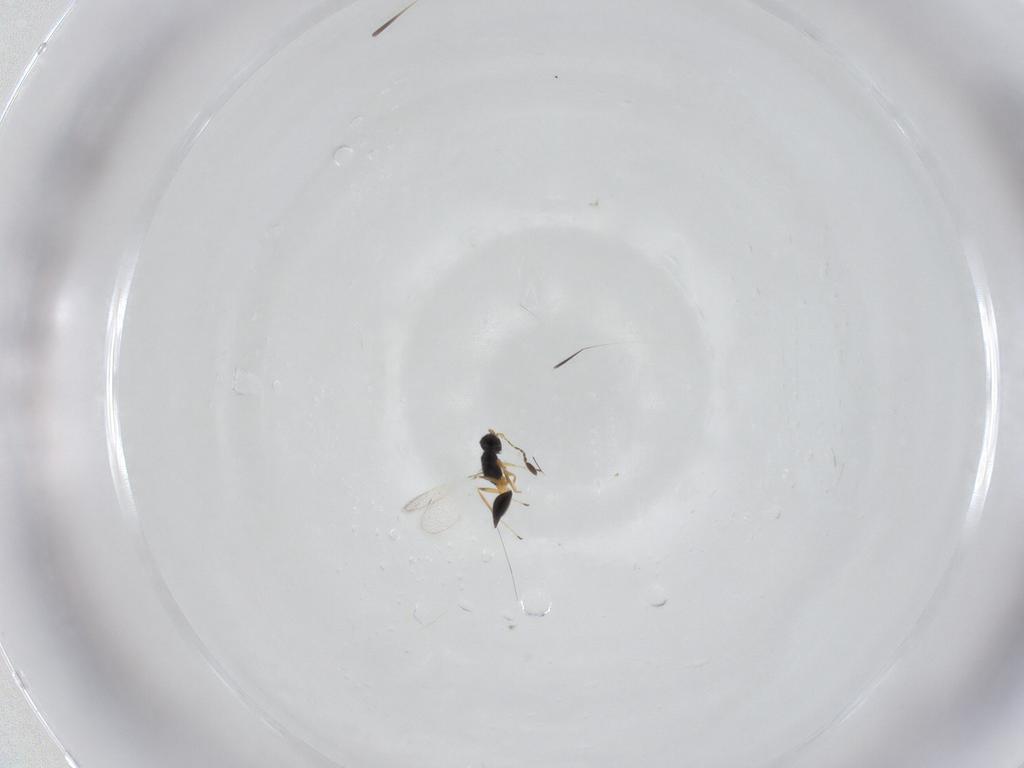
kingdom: Animalia
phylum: Arthropoda
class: Insecta
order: Hymenoptera
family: Mymaridae
